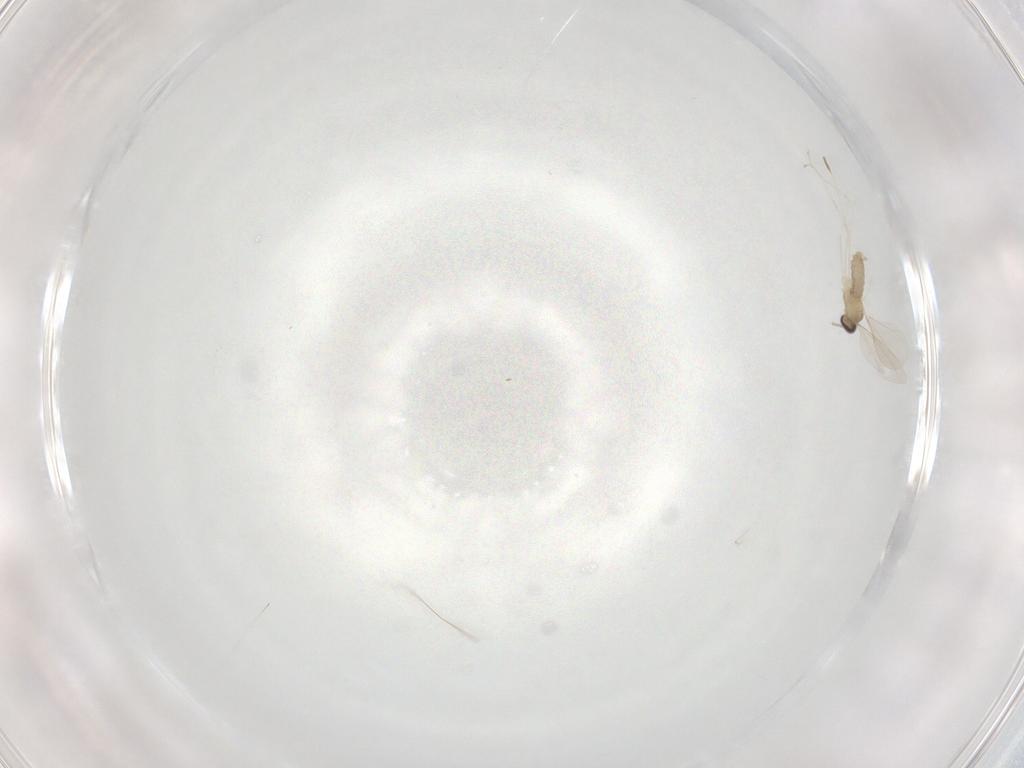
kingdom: Animalia
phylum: Arthropoda
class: Insecta
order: Diptera
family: Cecidomyiidae
